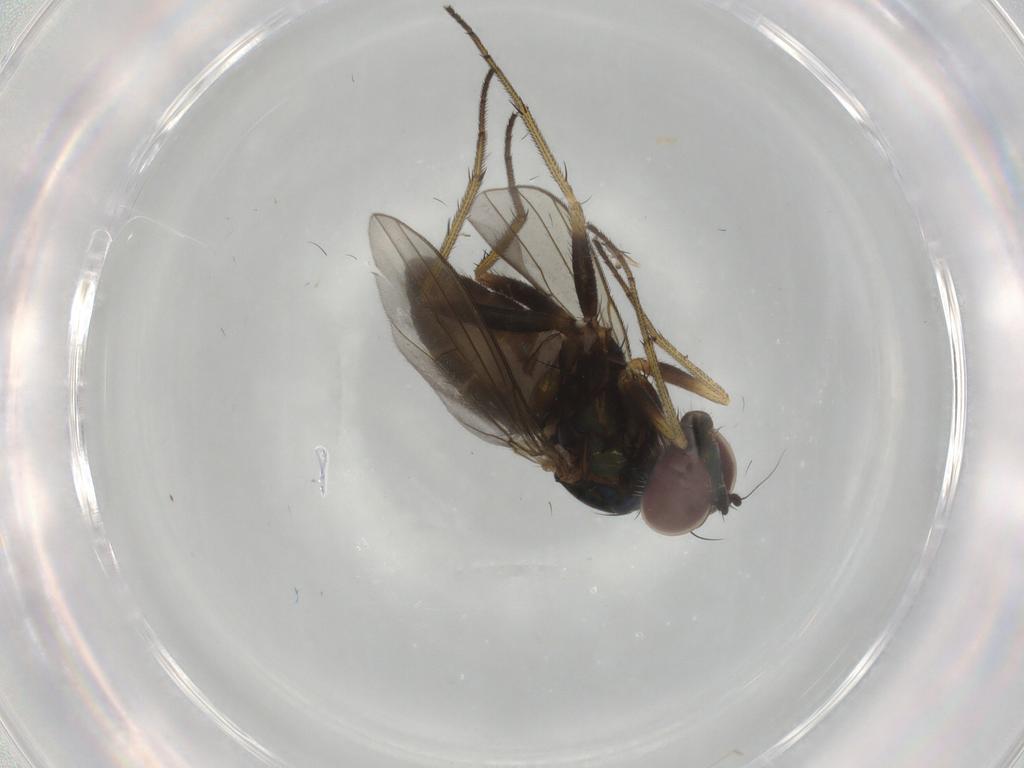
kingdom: Animalia
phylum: Arthropoda
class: Insecta
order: Diptera
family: Dolichopodidae
